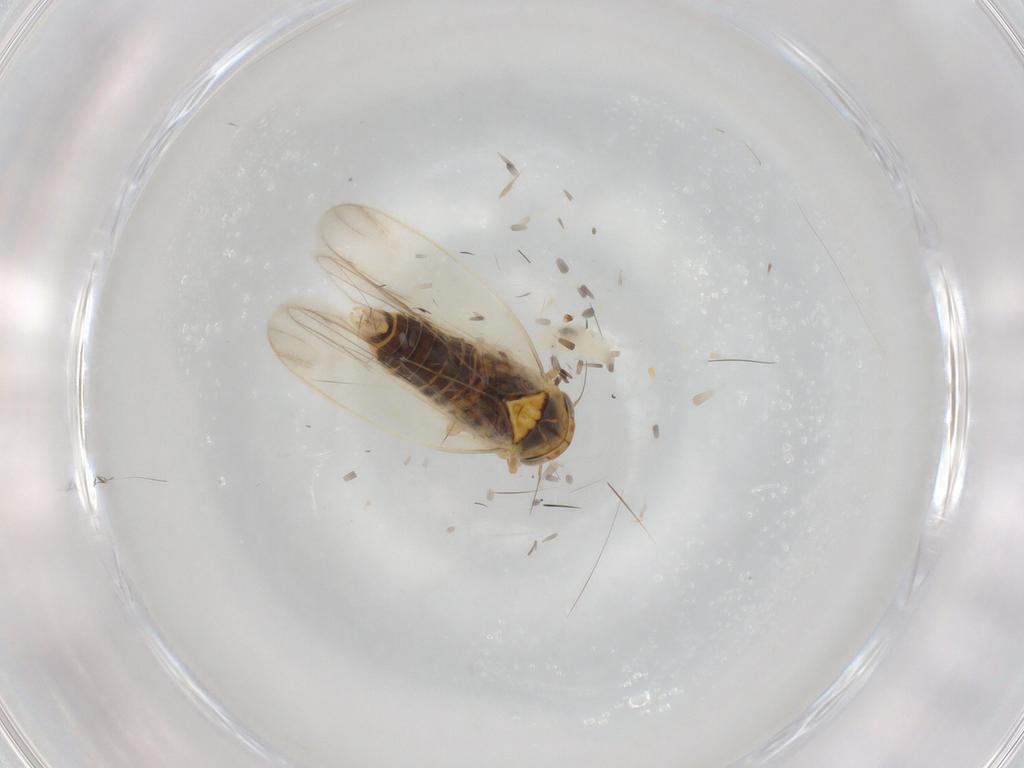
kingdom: Animalia
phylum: Arthropoda
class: Insecta
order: Hemiptera
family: Cicadellidae
